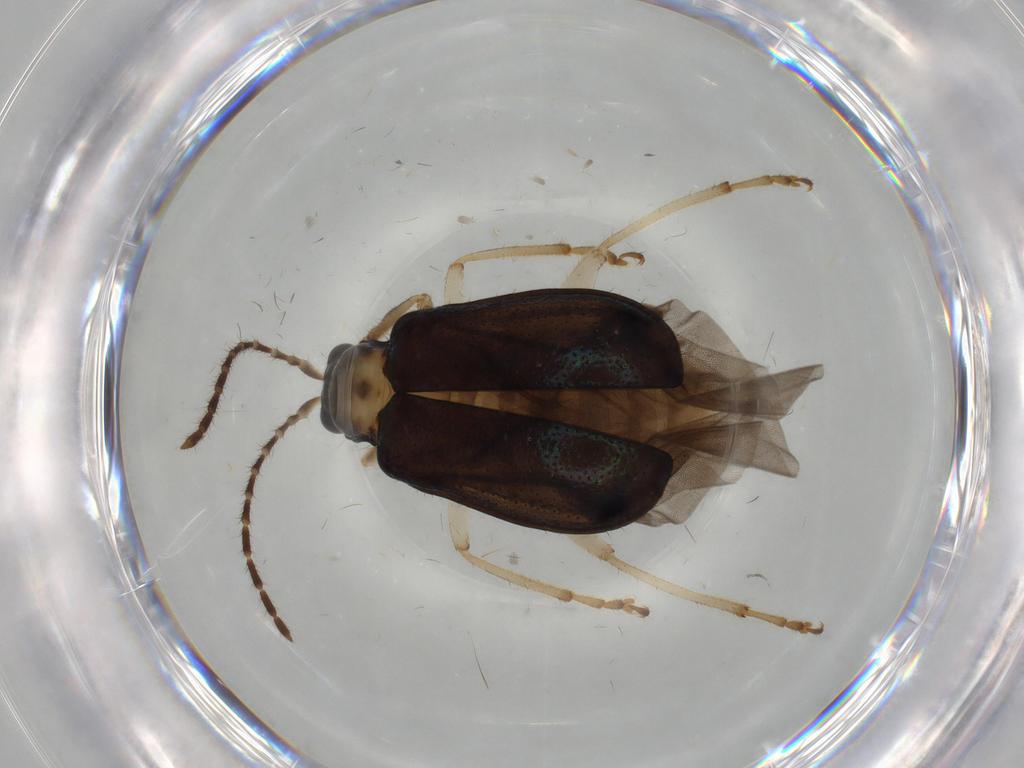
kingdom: Animalia
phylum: Arthropoda
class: Insecta
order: Coleoptera
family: Chrysomelidae
